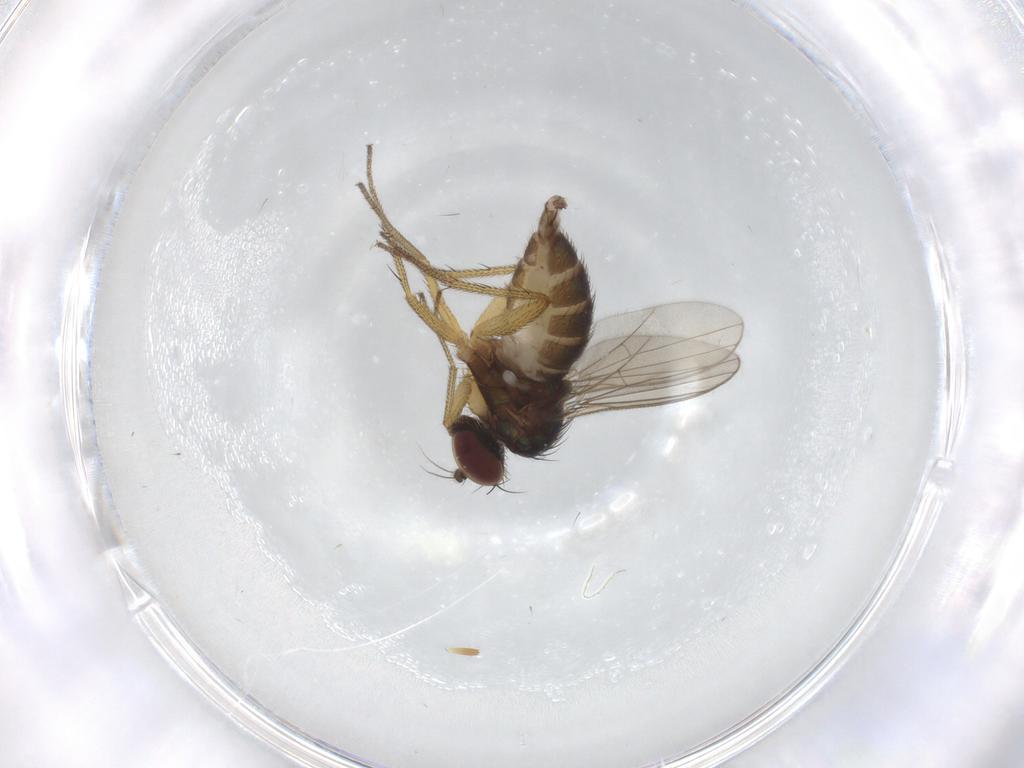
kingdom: Animalia
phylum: Arthropoda
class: Insecta
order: Diptera
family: Dolichopodidae
